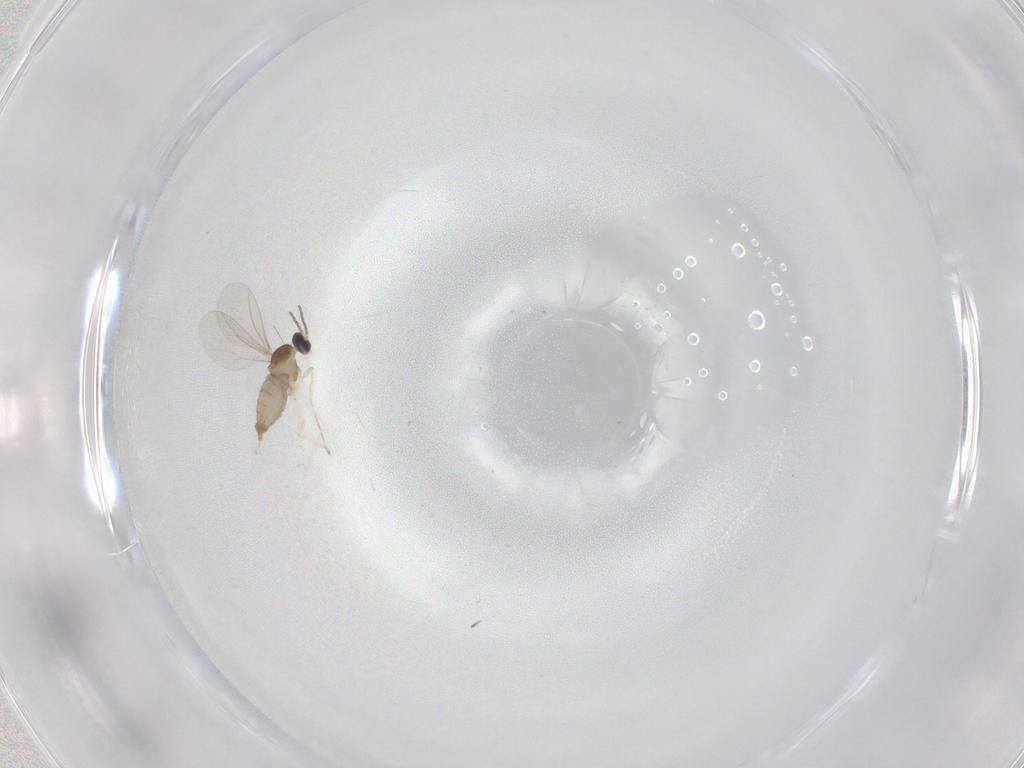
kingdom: Animalia
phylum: Arthropoda
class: Insecta
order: Diptera
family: Cecidomyiidae
